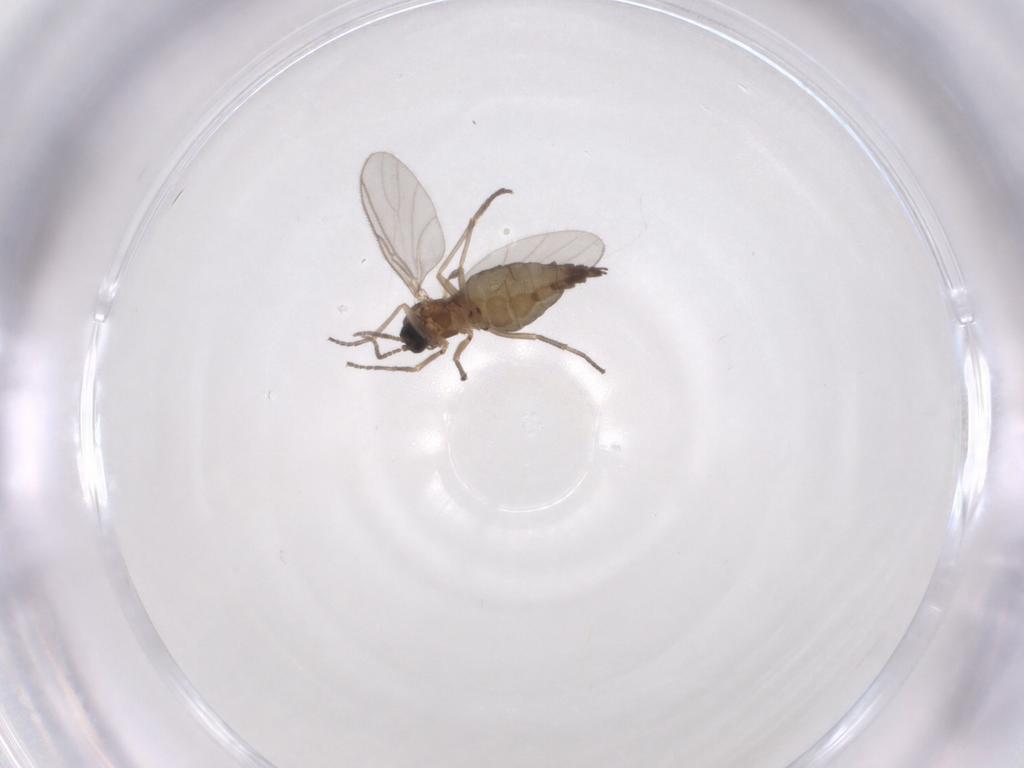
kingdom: Animalia
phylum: Arthropoda
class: Insecta
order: Diptera
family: Cecidomyiidae
